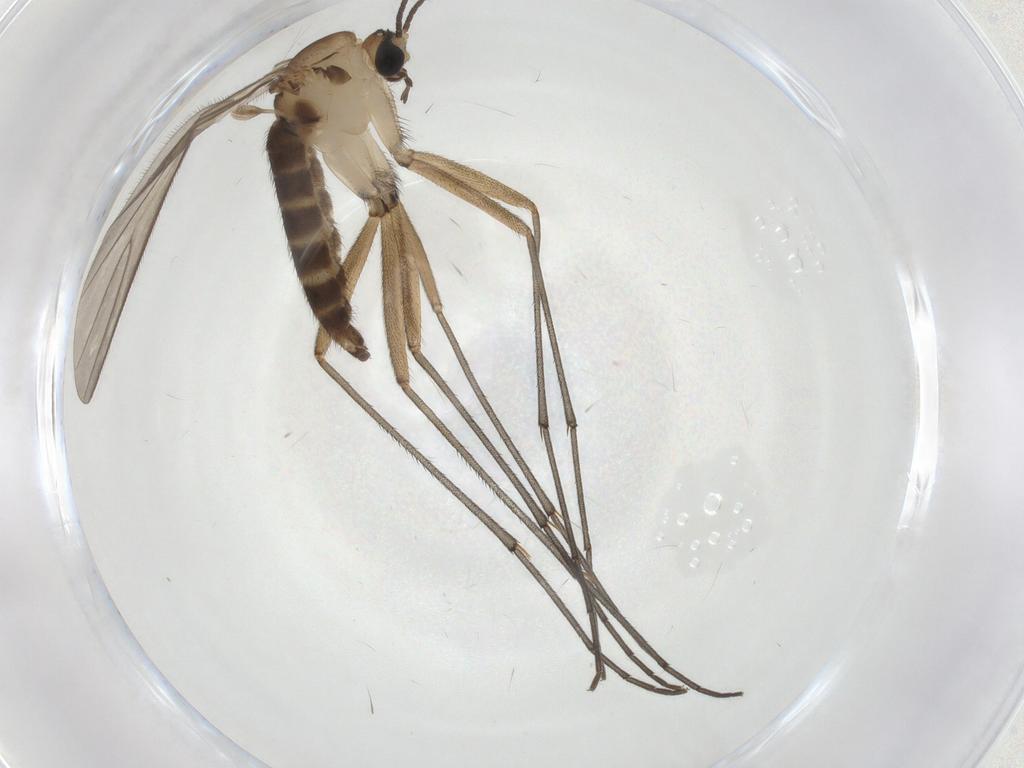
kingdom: Animalia
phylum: Arthropoda
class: Insecta
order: Diptera
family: Sciaridae
